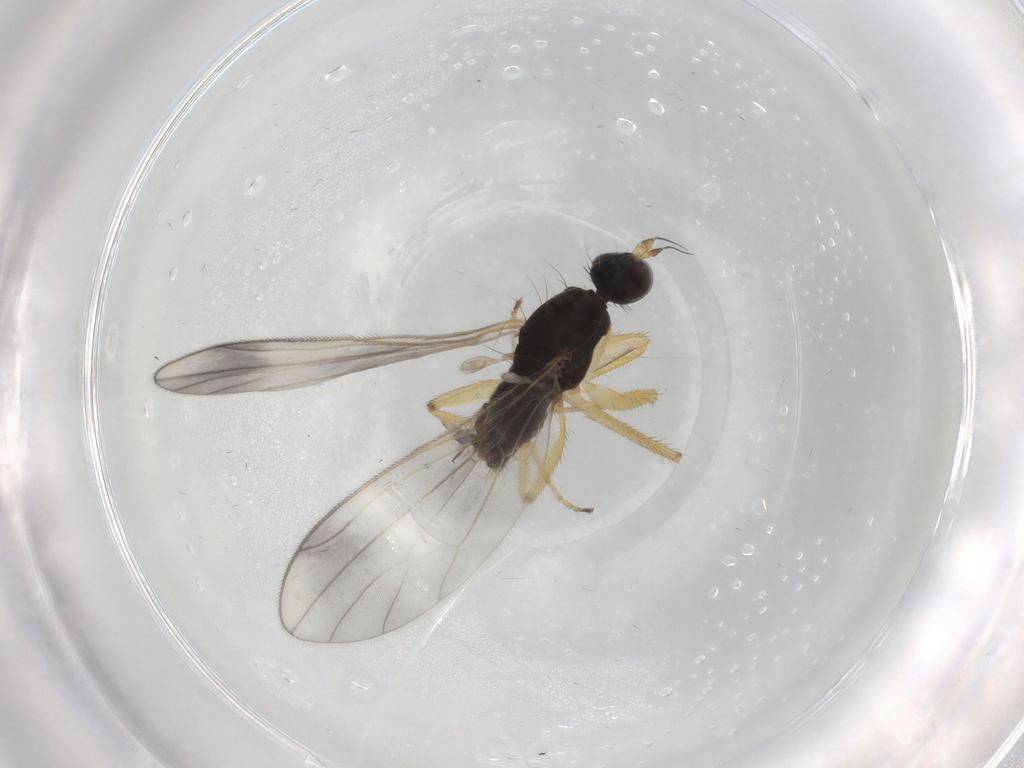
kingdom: Animalia
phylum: Arthropoda
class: Insecta
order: Diptera
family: Empididae
